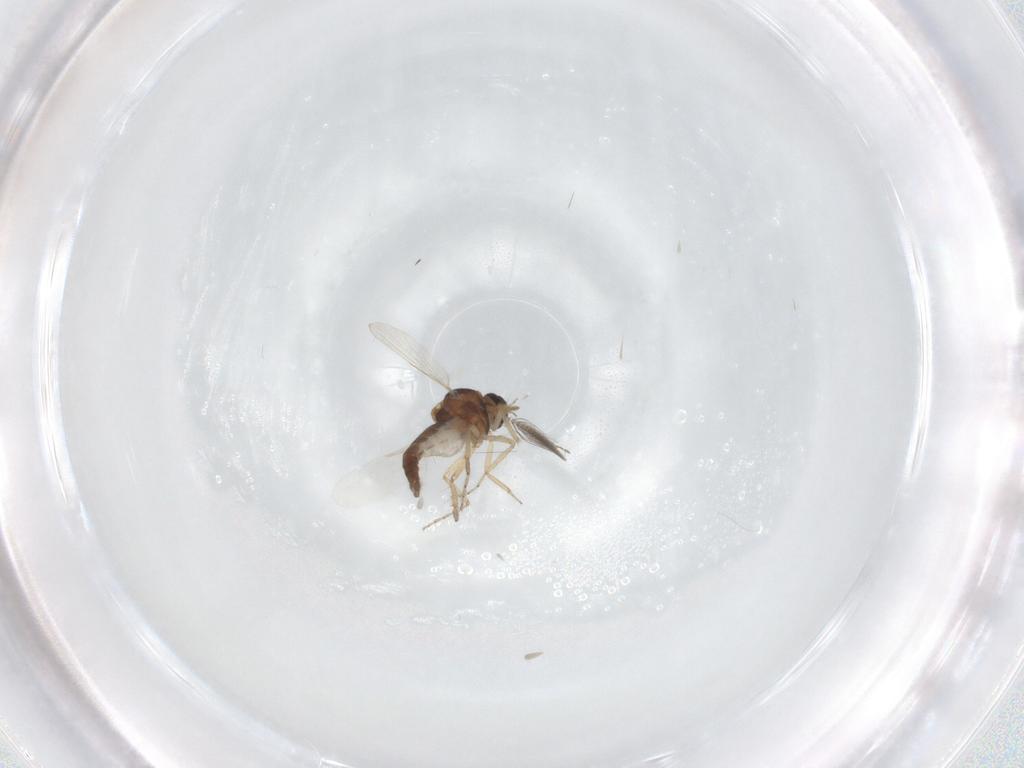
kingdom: Animalia
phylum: Arthropoda
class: Insecta
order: Diptera
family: Ceratopogonidae
